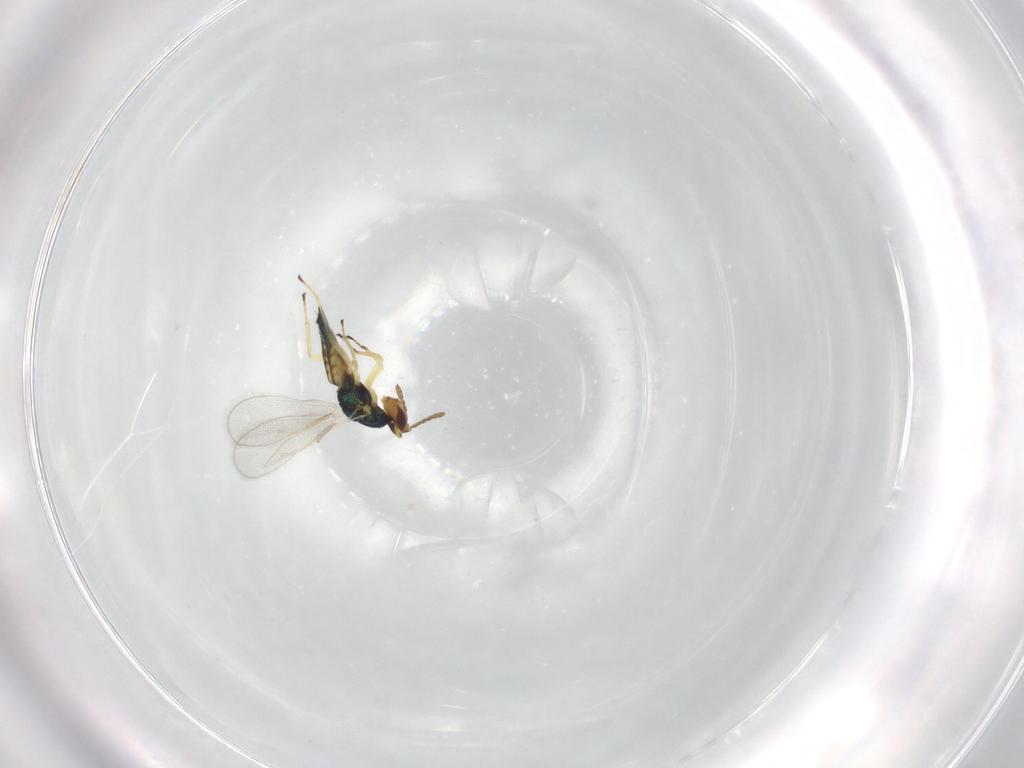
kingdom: Animalia
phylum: Arthropoda
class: Insecta
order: Hymenoptera
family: Eulophidae
